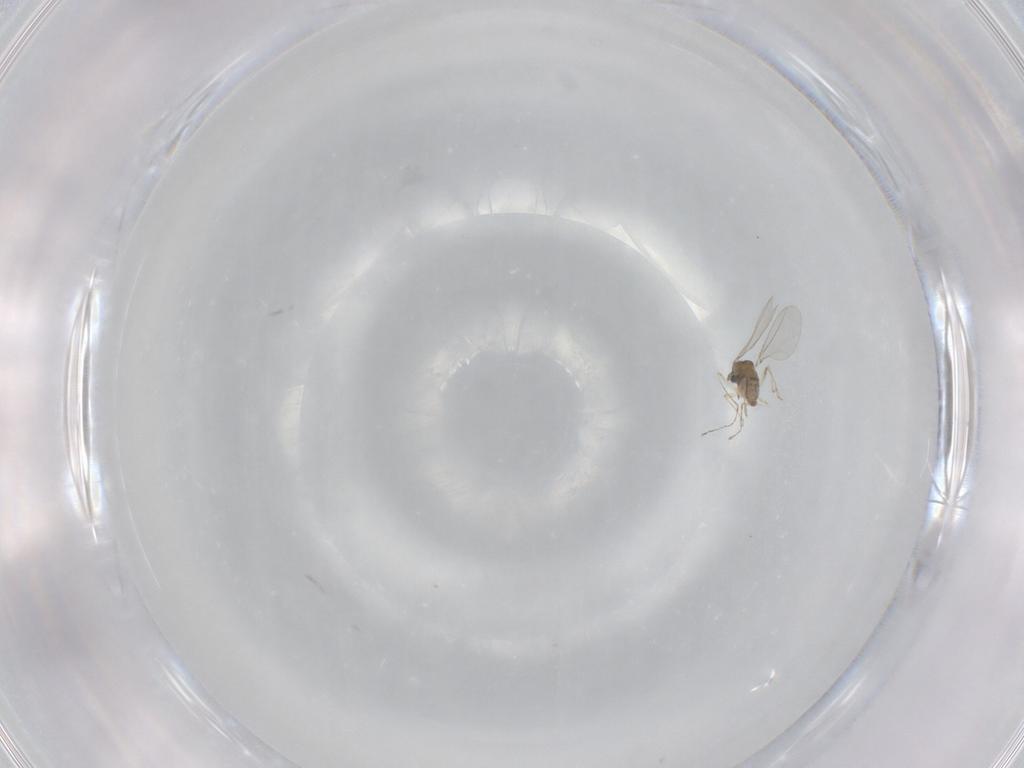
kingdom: Animalia
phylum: Arthropoda
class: Insecta
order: Diptera
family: Cecidomyiidae
